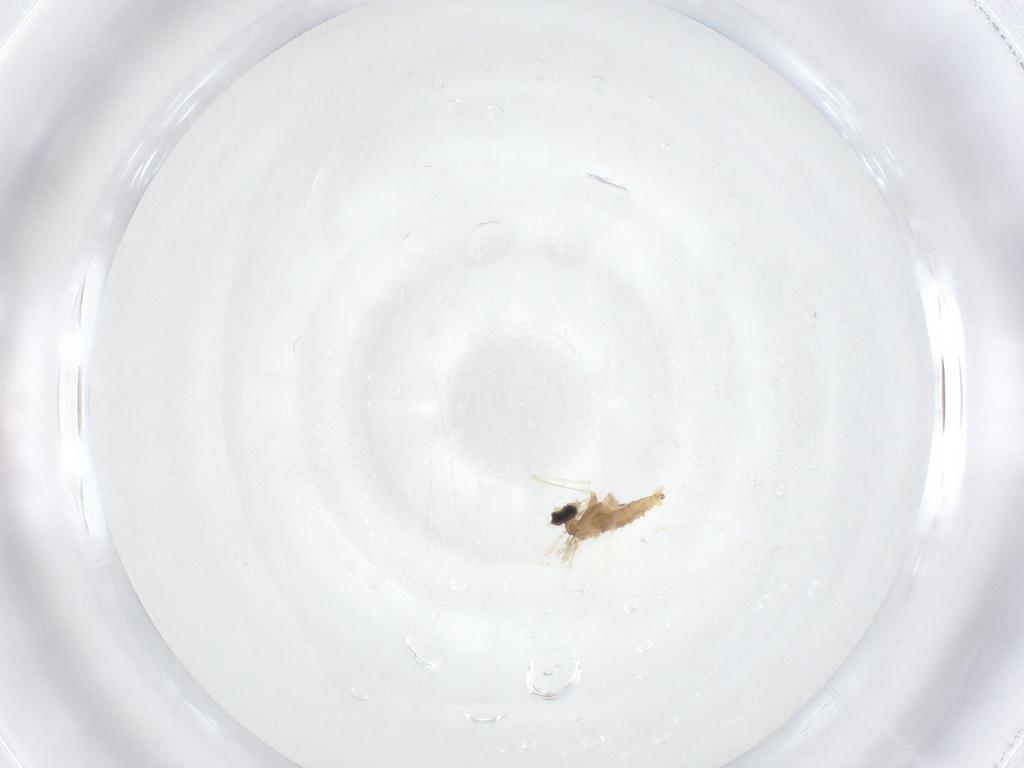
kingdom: Animalia
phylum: Arthropoda
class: Insecta
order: Diptera
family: Cecidomyiidae
